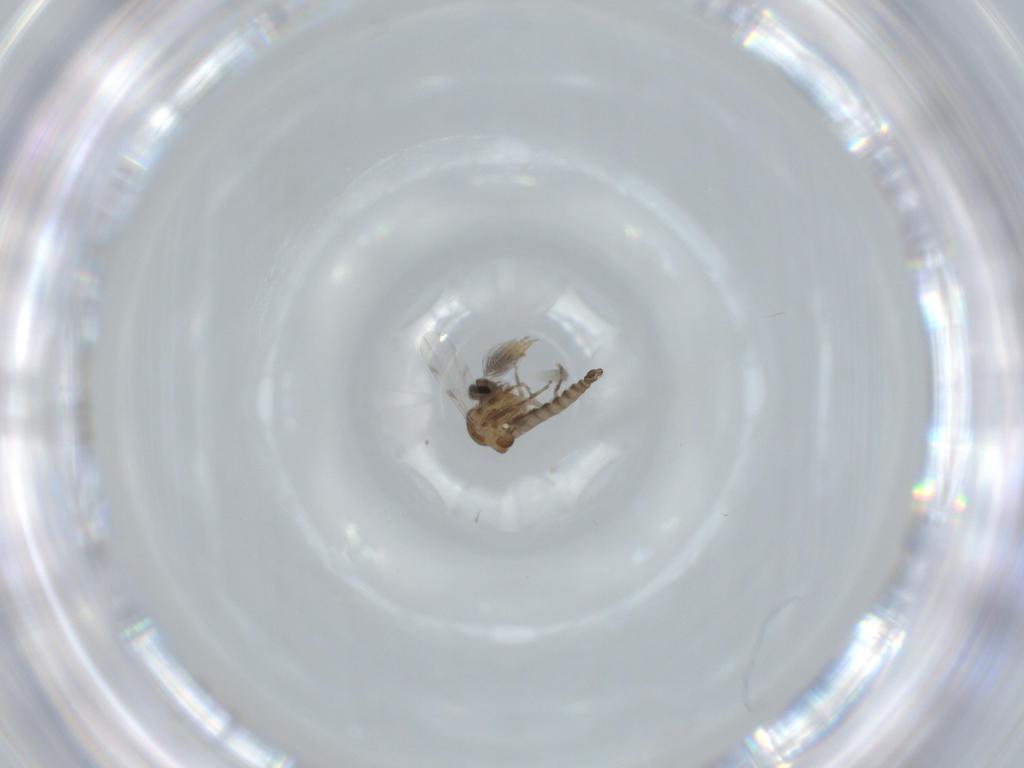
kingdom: Animalia
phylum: Arthropoda
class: Insecta
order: Diptera
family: Ceratopogonidae
